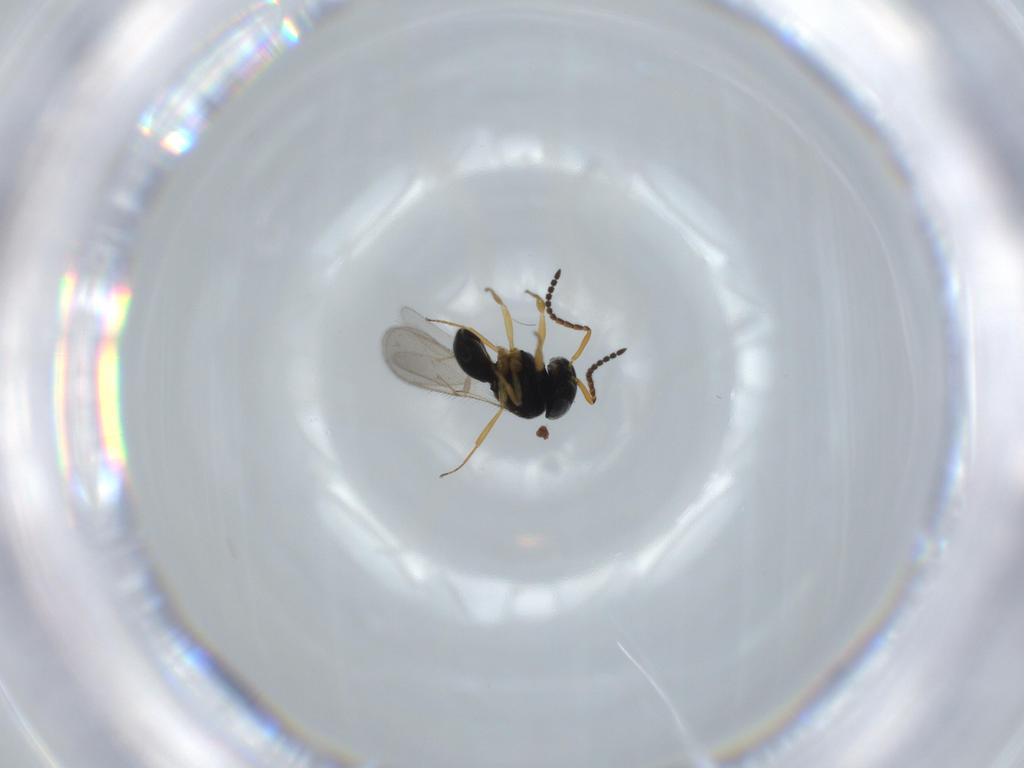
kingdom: Animalia
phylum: Arthropoda
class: Insecta
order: Hymenoptera
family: Scelionidae
